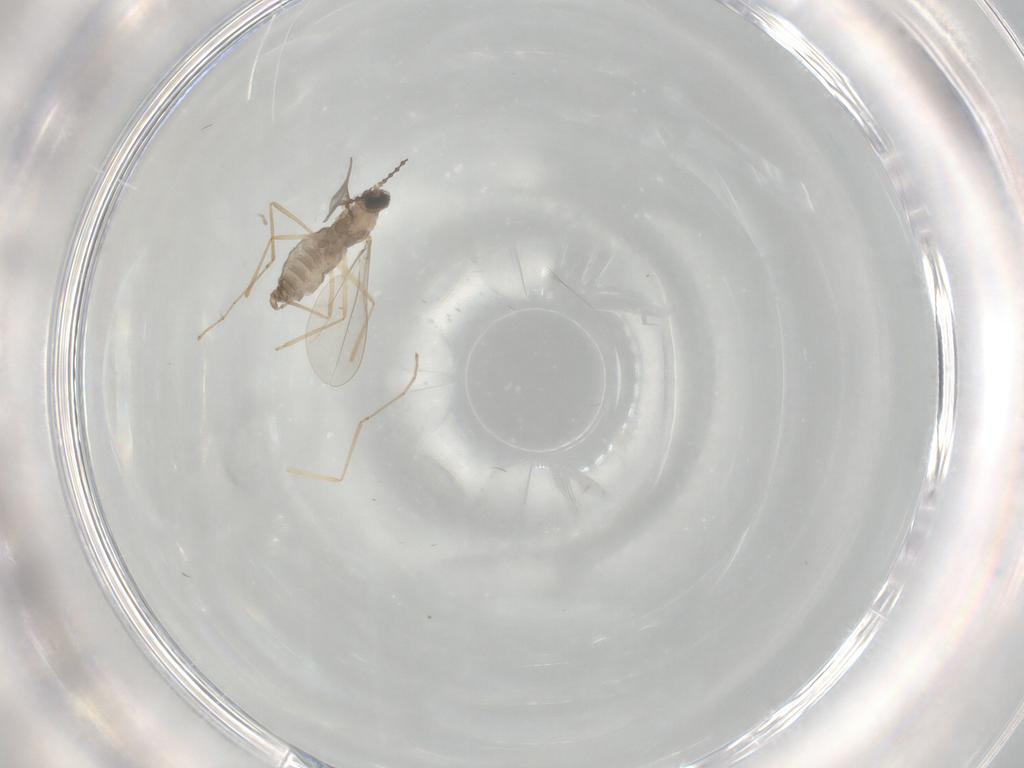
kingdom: Animalia
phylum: Arthropoda
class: Insecta
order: Diptera
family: Cecidomyiidae
